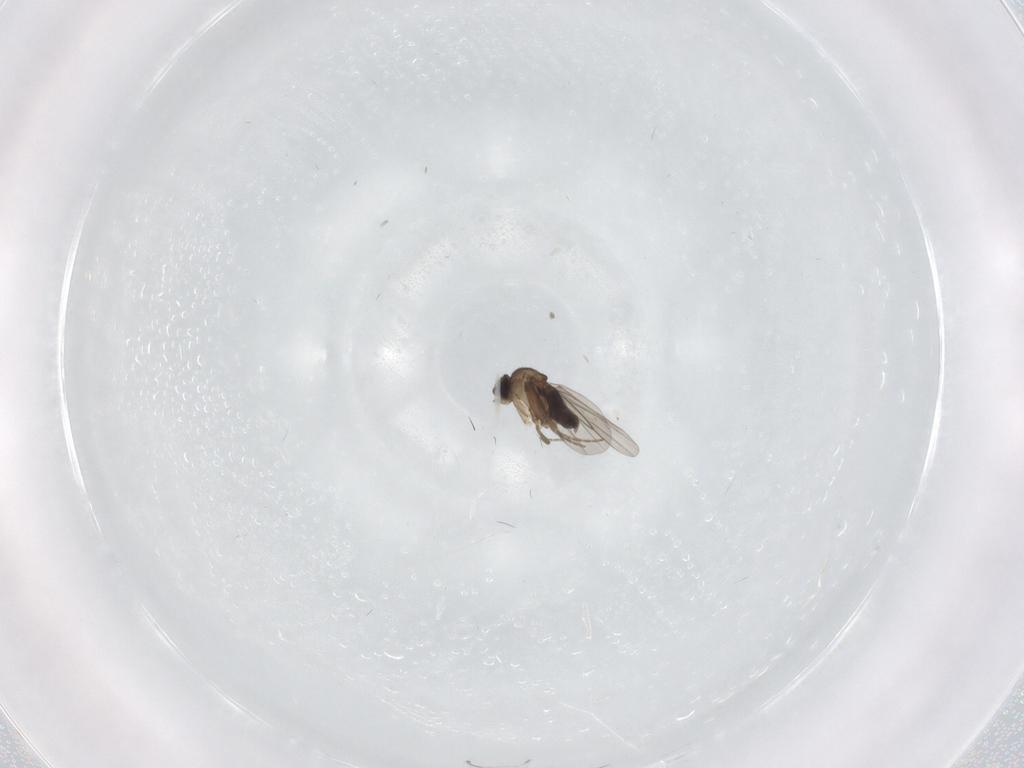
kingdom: Animalia
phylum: Arthropoda
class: Insecta
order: Diptera
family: Phoridae
